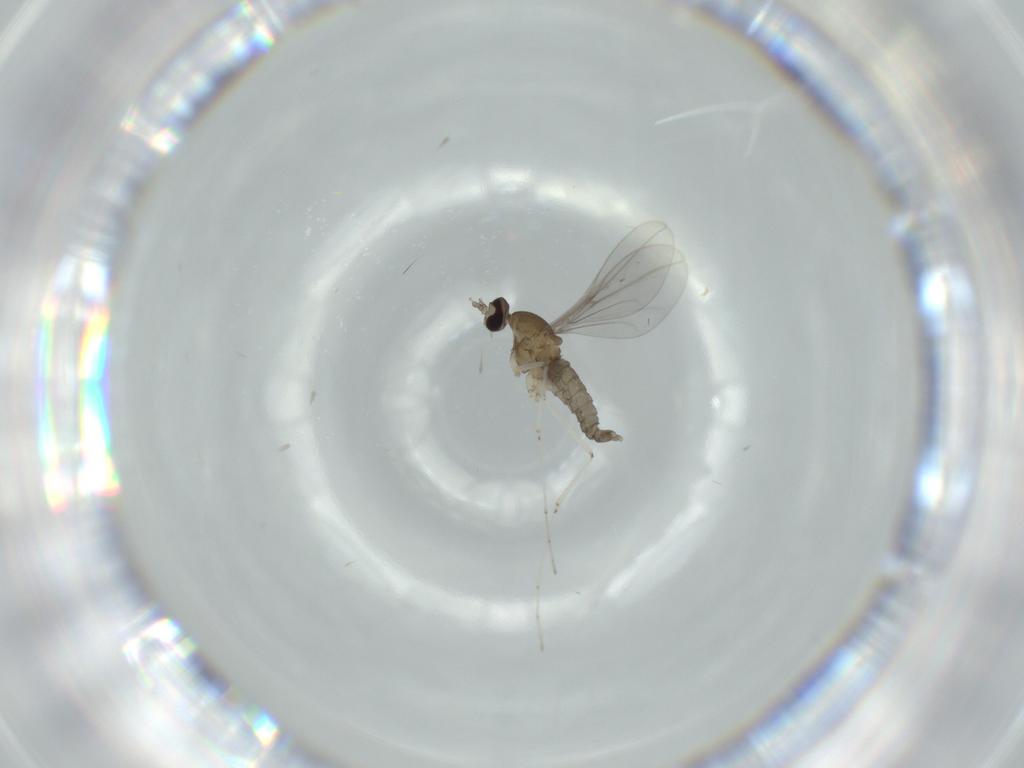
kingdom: Animalia
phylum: Arthropoda
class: Insecta
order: Diptera
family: Cecidomyiidae
